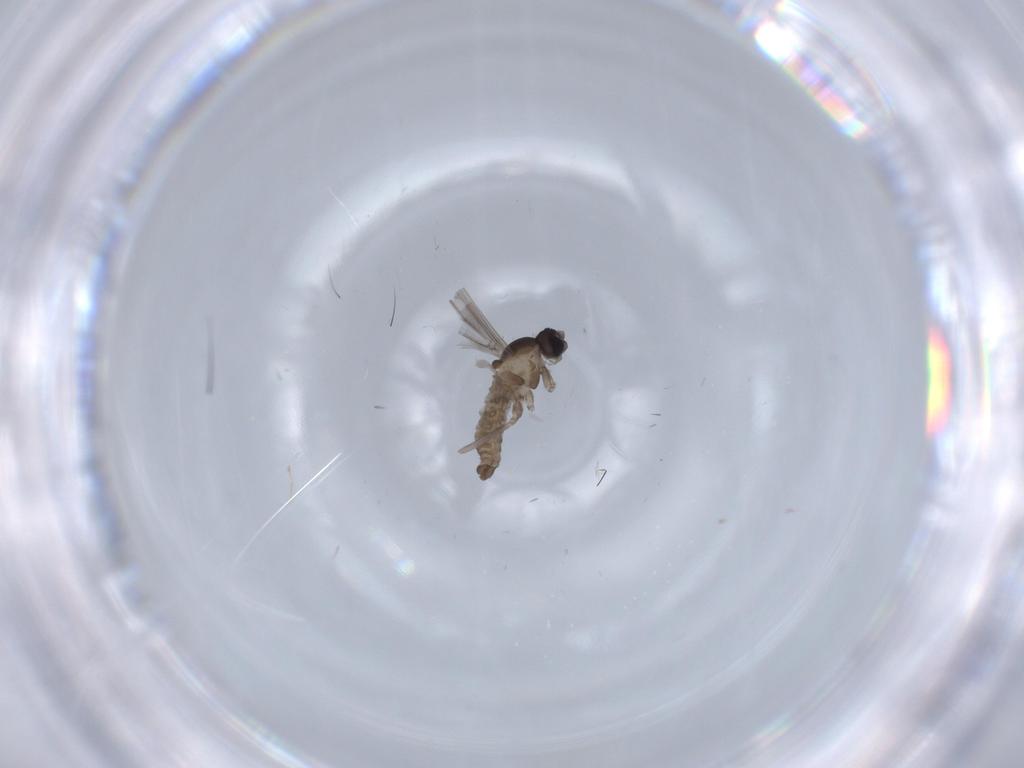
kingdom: Animalia
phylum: Arthropoda
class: Insecta
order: Diptera
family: Cecidomyiidae
